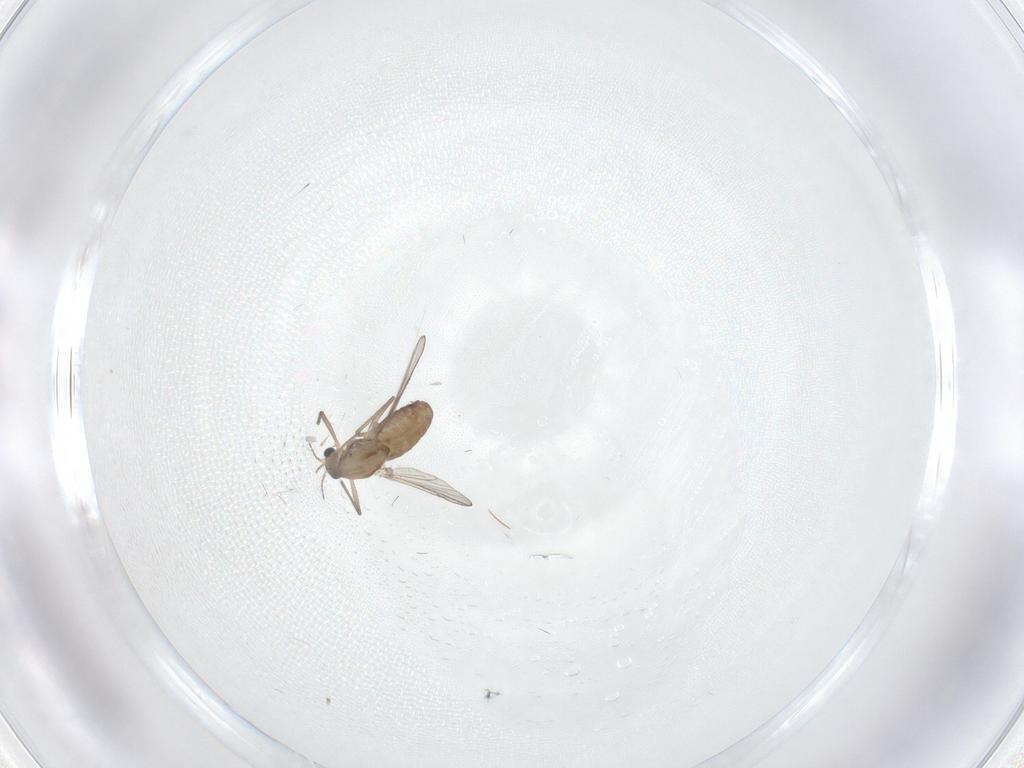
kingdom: Animalia
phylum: Arthropoda
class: Insecta
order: Diptera
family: Chironomidae
